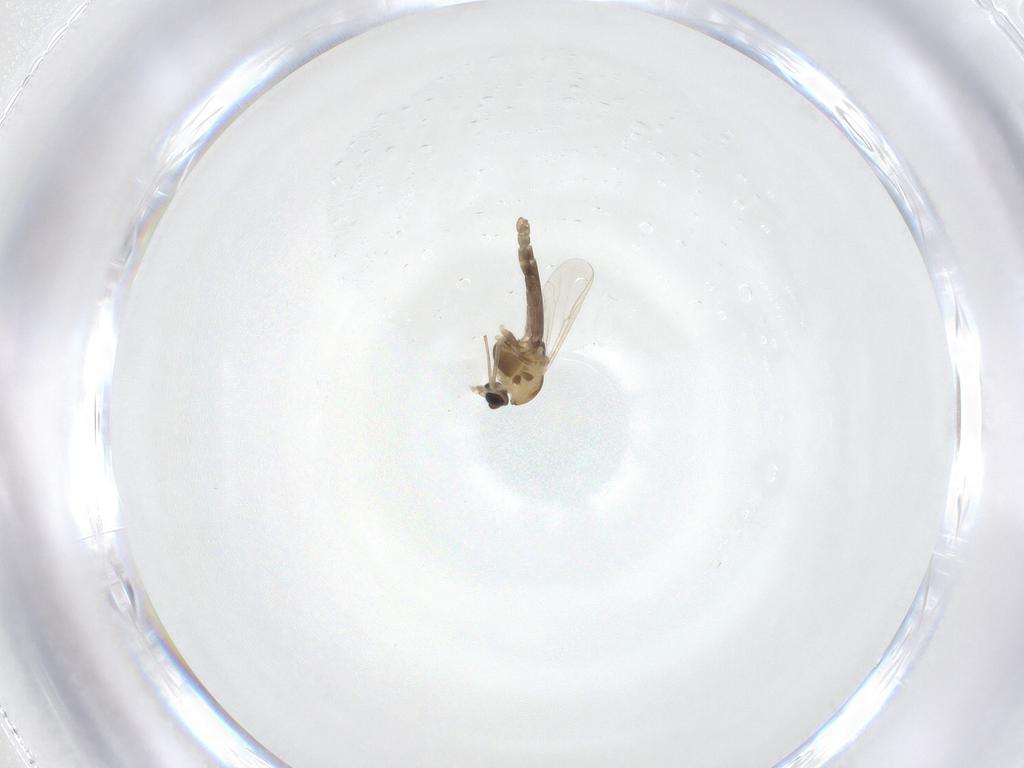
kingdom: Animalia
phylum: Arthropoda
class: Insecta
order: Diptera
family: Chironomidae
